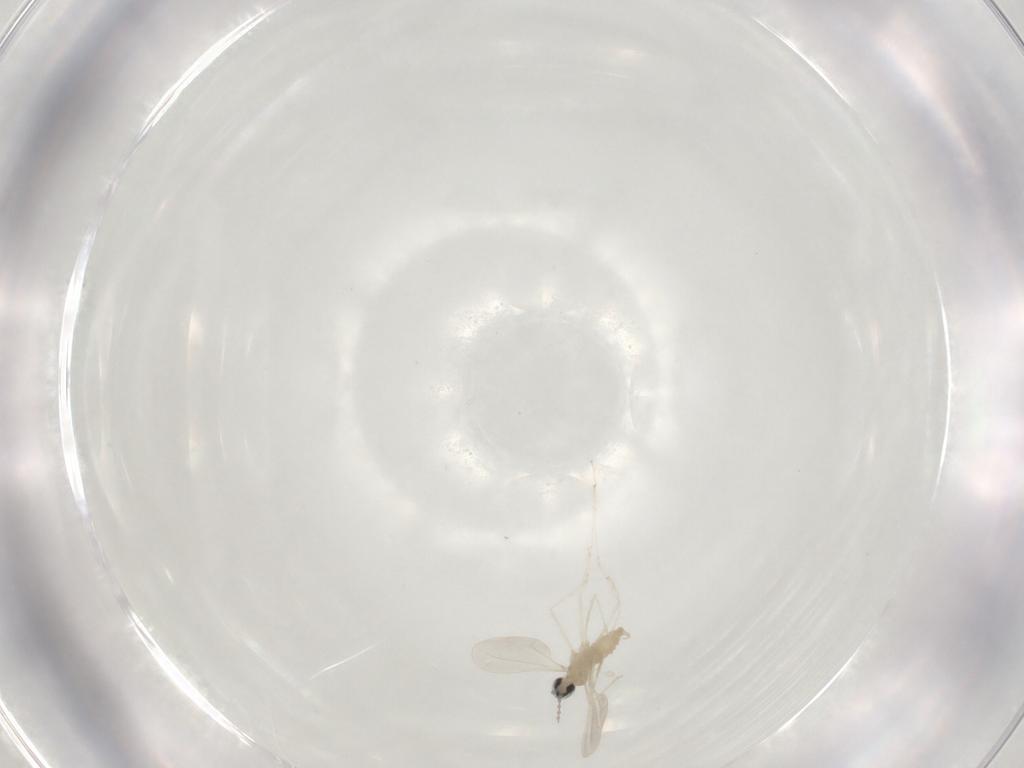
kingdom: Animalia
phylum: Arthropoda
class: Insecta
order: Diptera
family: Cecidomyiidae
